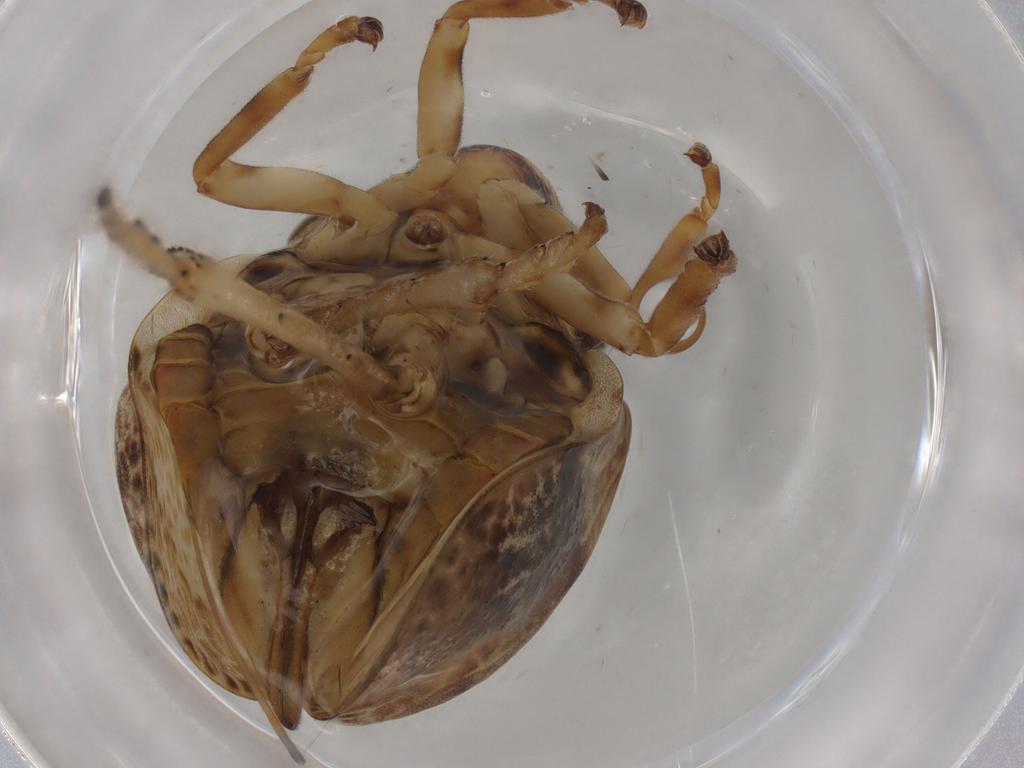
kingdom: Animalia
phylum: Arthropoda
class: Insecta
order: Hemiptera
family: Aphrophoridae
